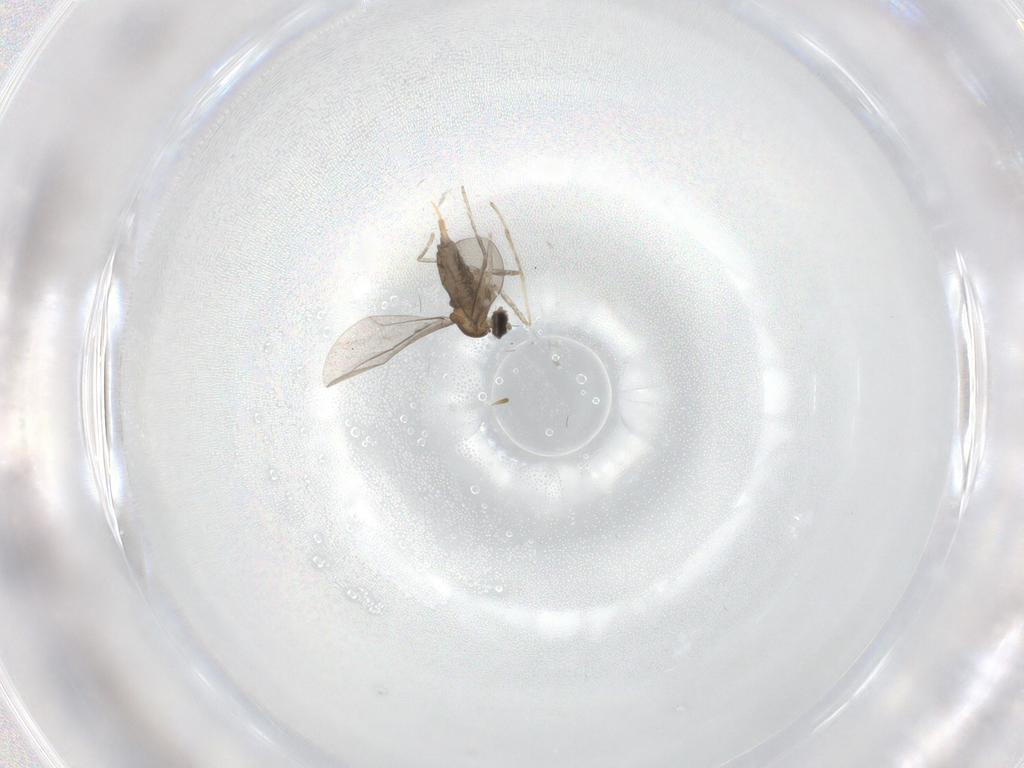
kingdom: Animalia
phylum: Arthropoda
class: Insecta
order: Diptera
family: Cecidomyiidae
